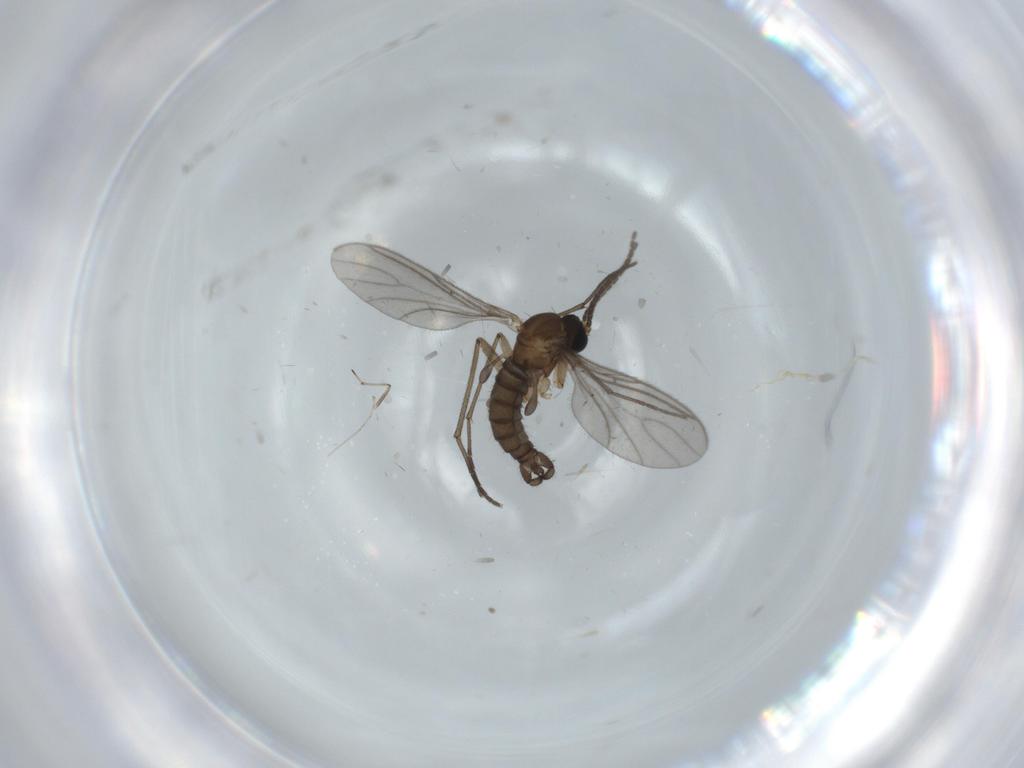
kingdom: Animalia
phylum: Arthropoda
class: Insecta
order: Diptera
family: Sciaridae
